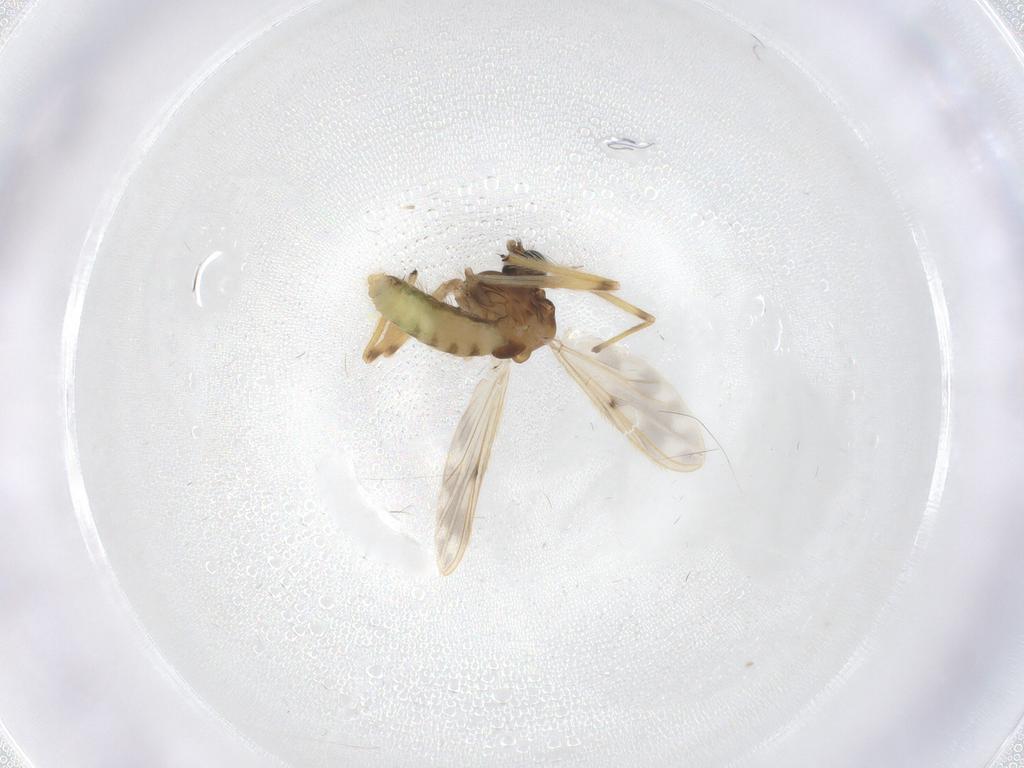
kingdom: Animalia
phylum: Arthropoda
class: Insecta
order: Diptera
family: Chironomidae
